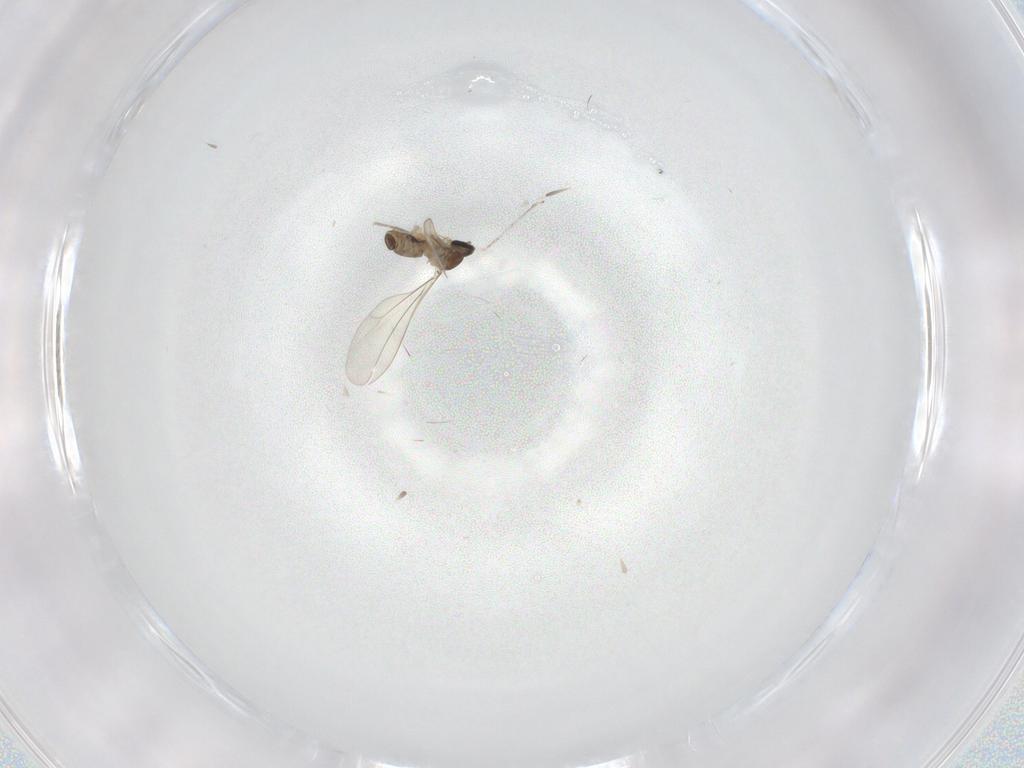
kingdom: Animalia
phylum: Arthropoda
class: Insecta
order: Diptera
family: Cecidomyiidae
